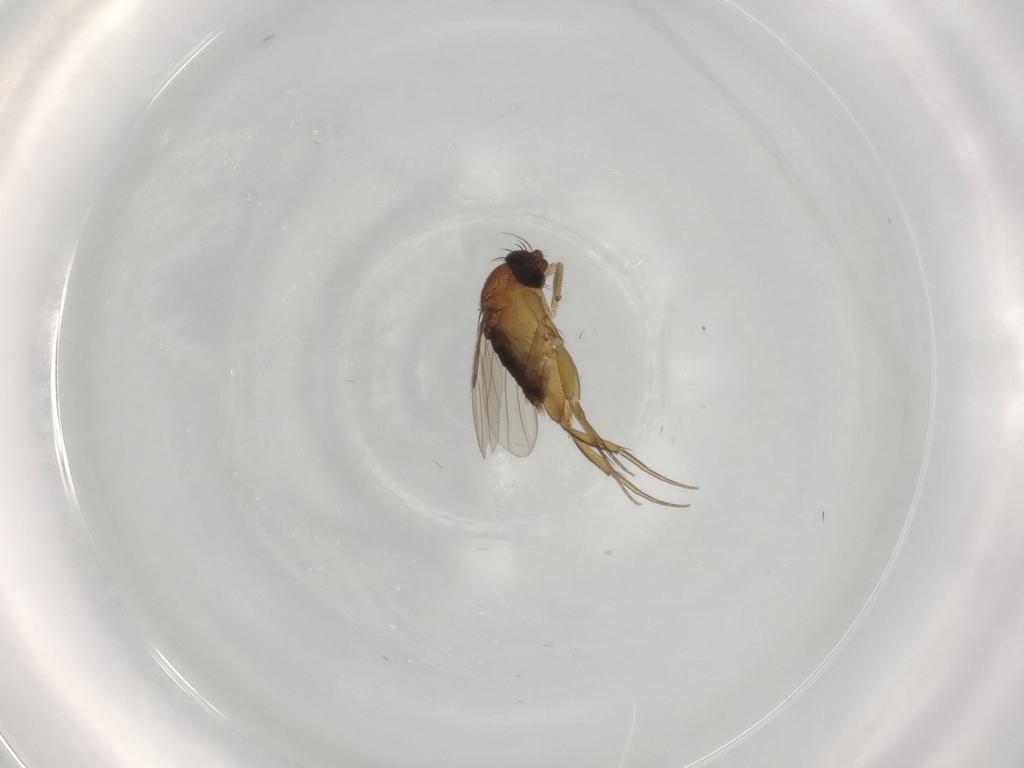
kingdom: Animalia
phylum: Arthropoda
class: Insecta
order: Diptera
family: Phoridae
